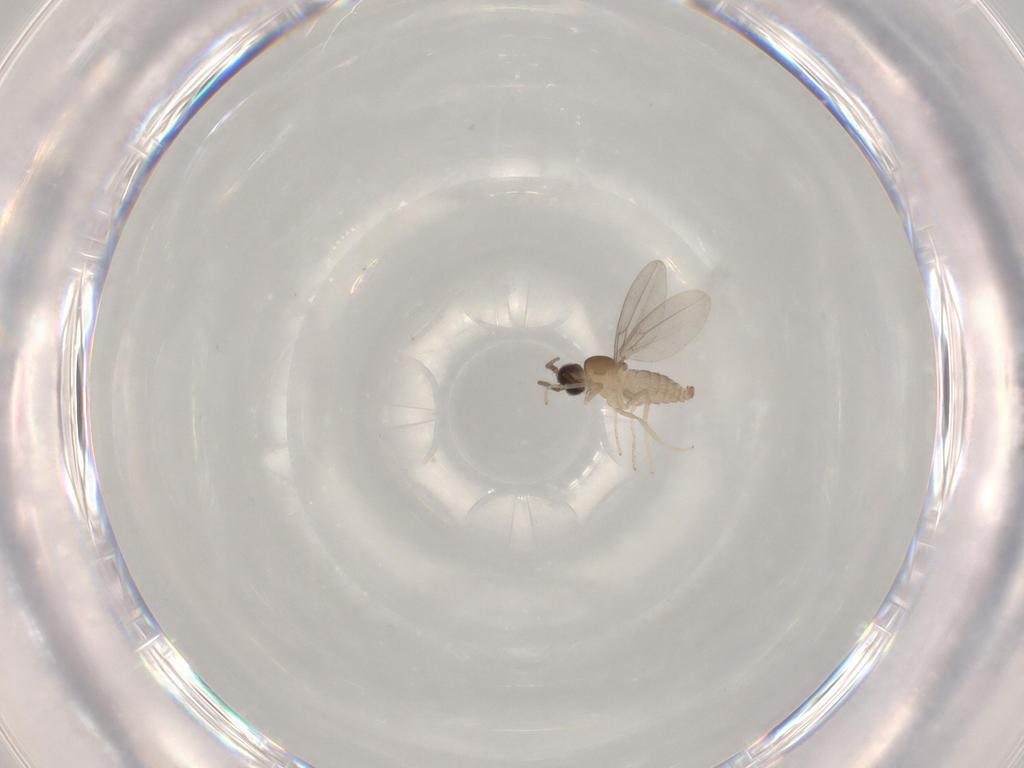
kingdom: Animalia
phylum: Arthropoda
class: Insecta
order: Diptera
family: Cecidomyiidae
